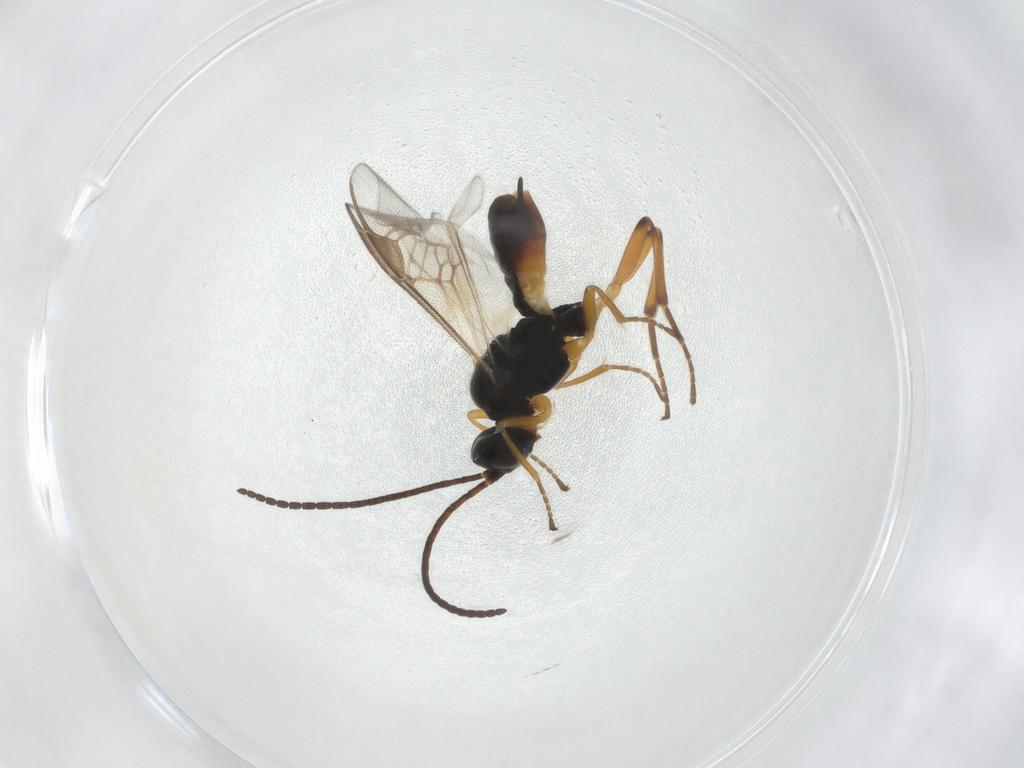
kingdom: Animalia
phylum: Arthropoda
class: Insecta
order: Hymenoptera
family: Braconidae
